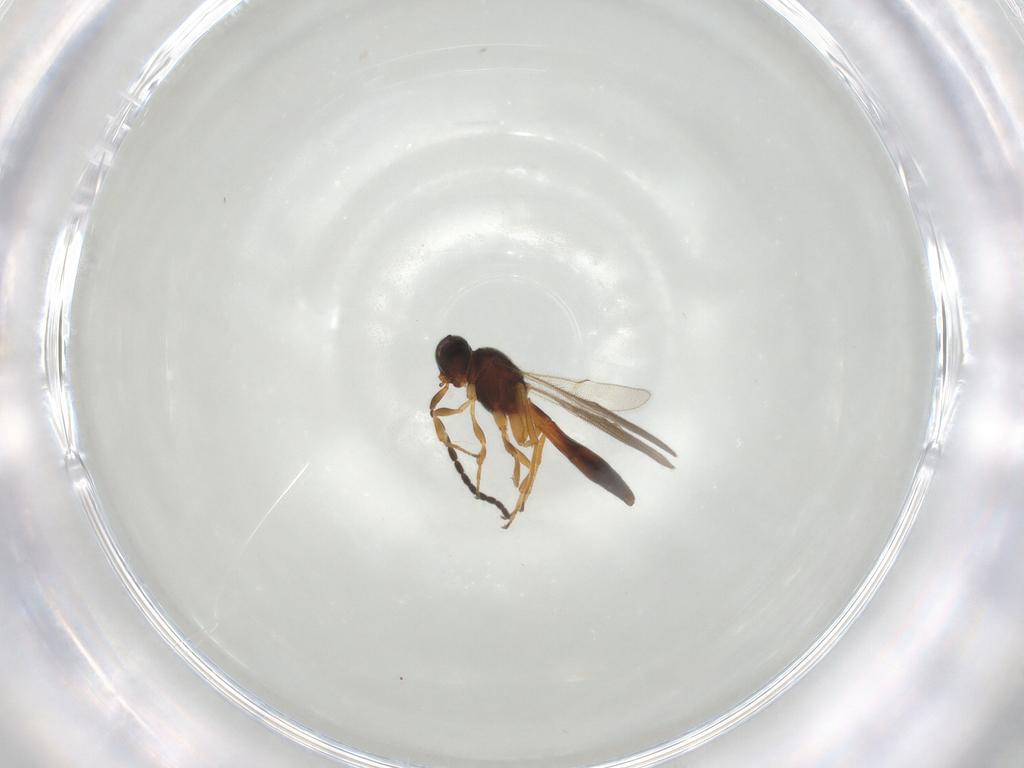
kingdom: Animalia
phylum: Arthropoda
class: Insecta
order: Hymenoptera
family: Scelionidae
